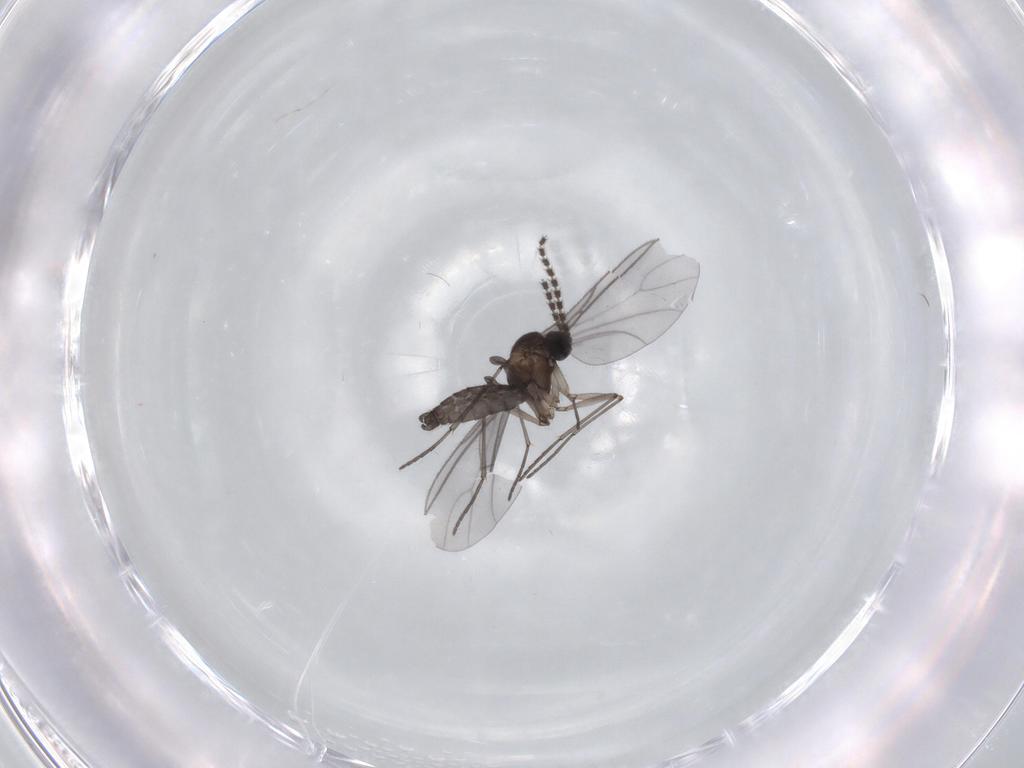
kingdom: Animalia
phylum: Arthropoda
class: Insecta
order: Diptera
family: Sciaridae
